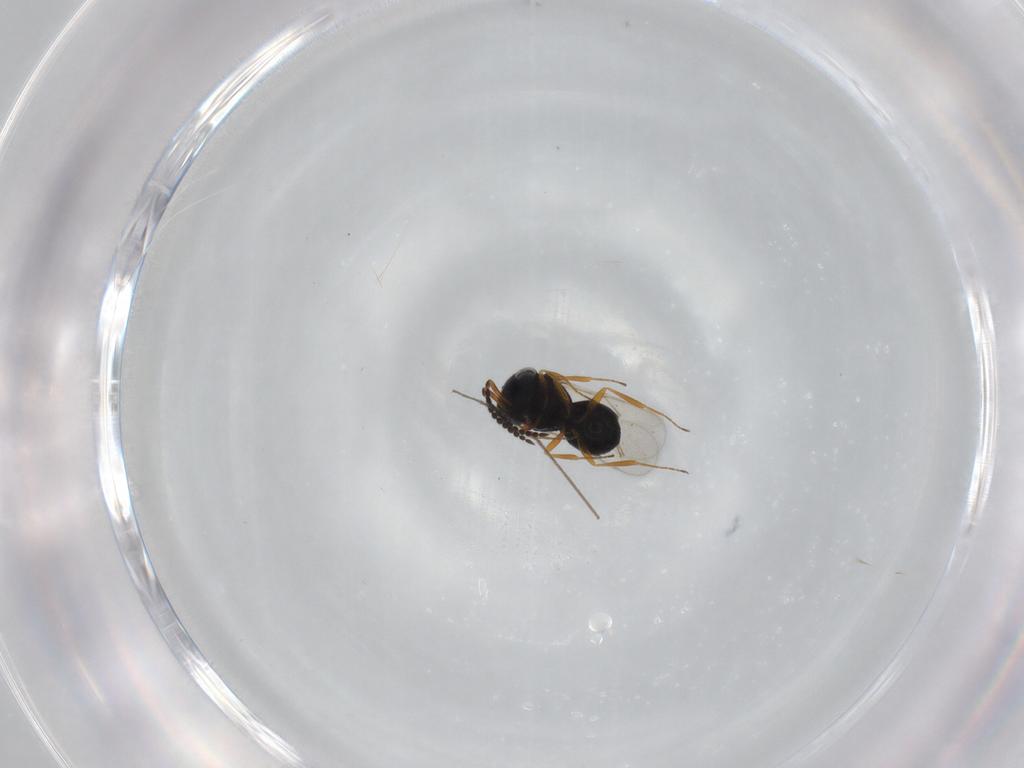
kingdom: Animalia
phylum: Arthropoda
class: Insecta
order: Hymenoptera
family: Scelionidae
